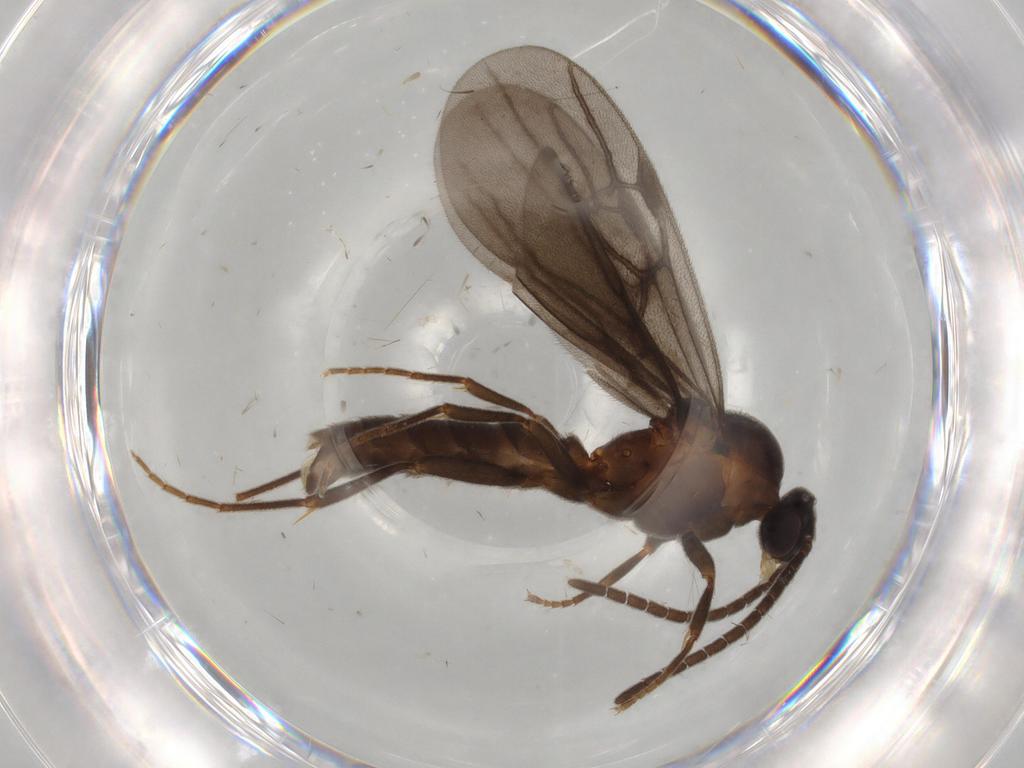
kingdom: Animalia
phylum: Arthropoda
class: Insecta
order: Hymenoptera
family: Formicidae
